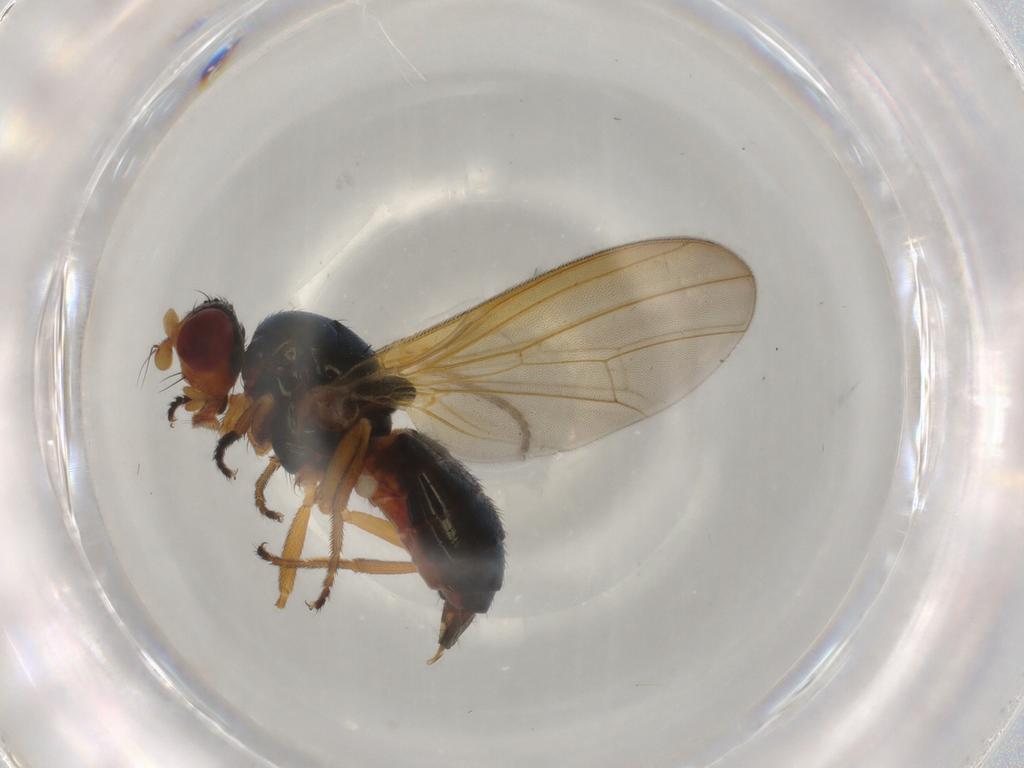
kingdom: Animalia
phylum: Arthropoda
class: Insecta
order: Diptera
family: Piophilidae
